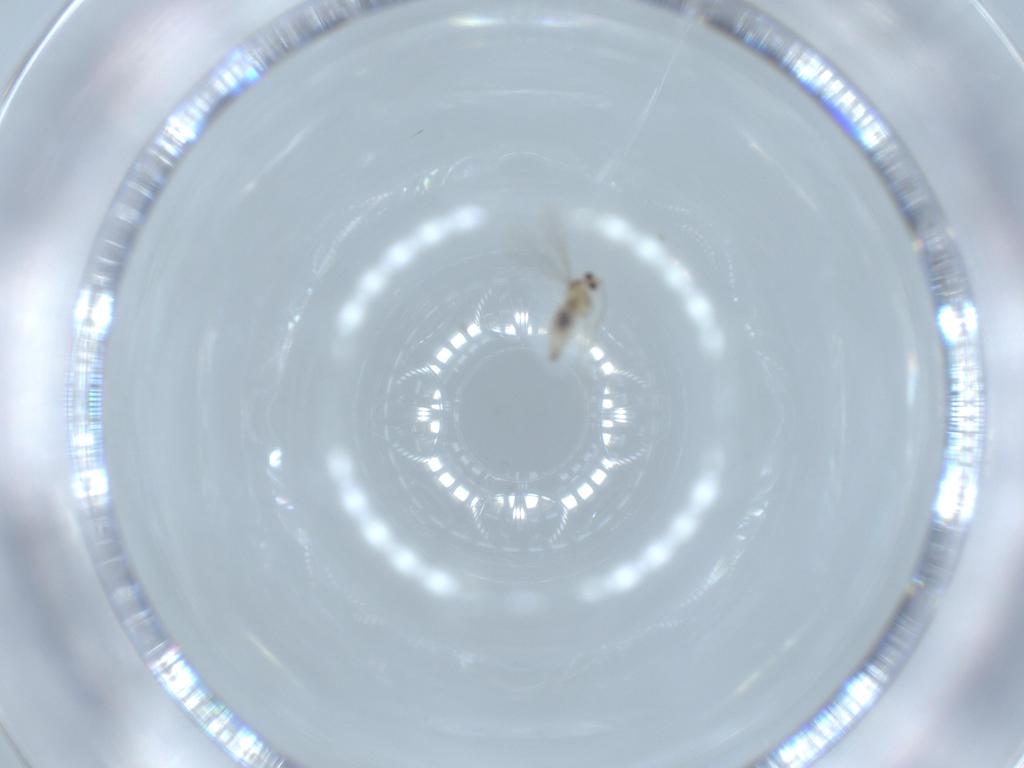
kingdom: Animalia
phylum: Arthropoda
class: Insecta
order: Diptera
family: Cecidomyiidae
